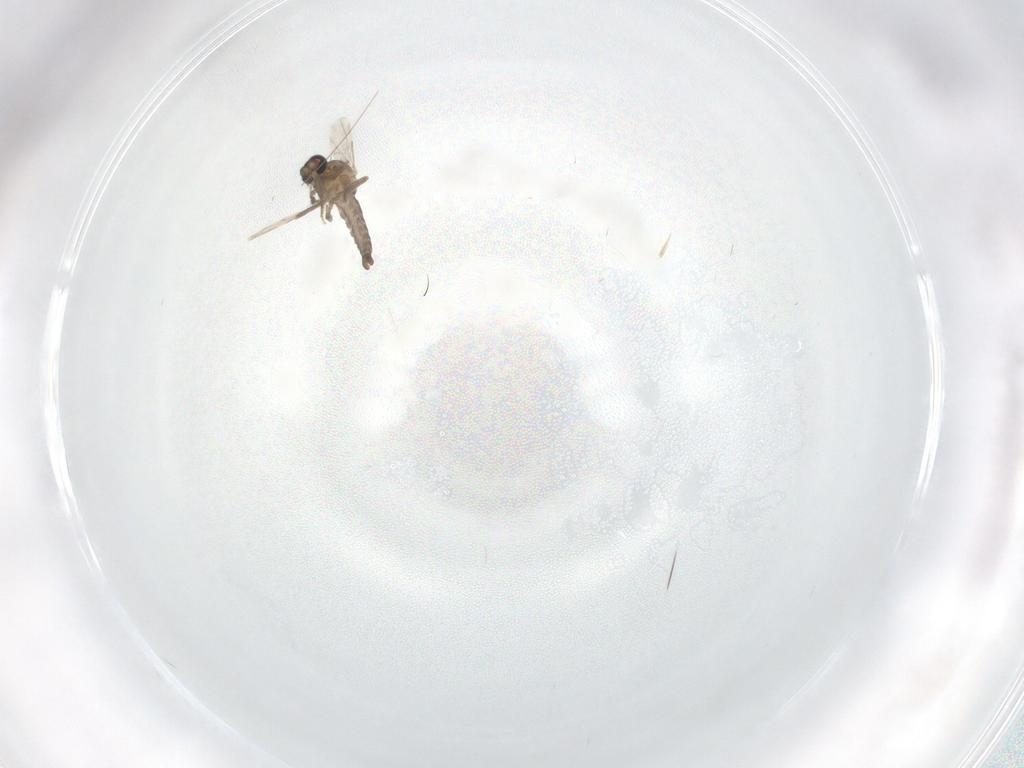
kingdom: Animalia
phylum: Arthropoda
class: Insecta
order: Diptera
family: Ceratopogonidae
